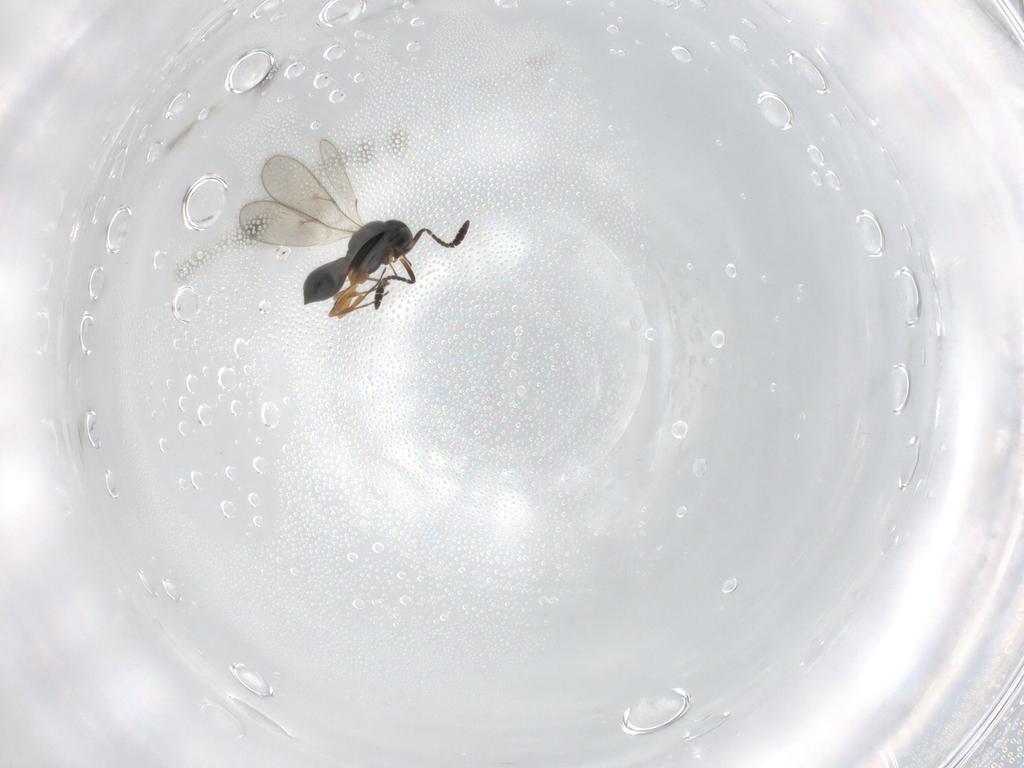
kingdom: Animalia
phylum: Arthropoda
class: Insecta
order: Hymenoptera
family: Scelionidae
